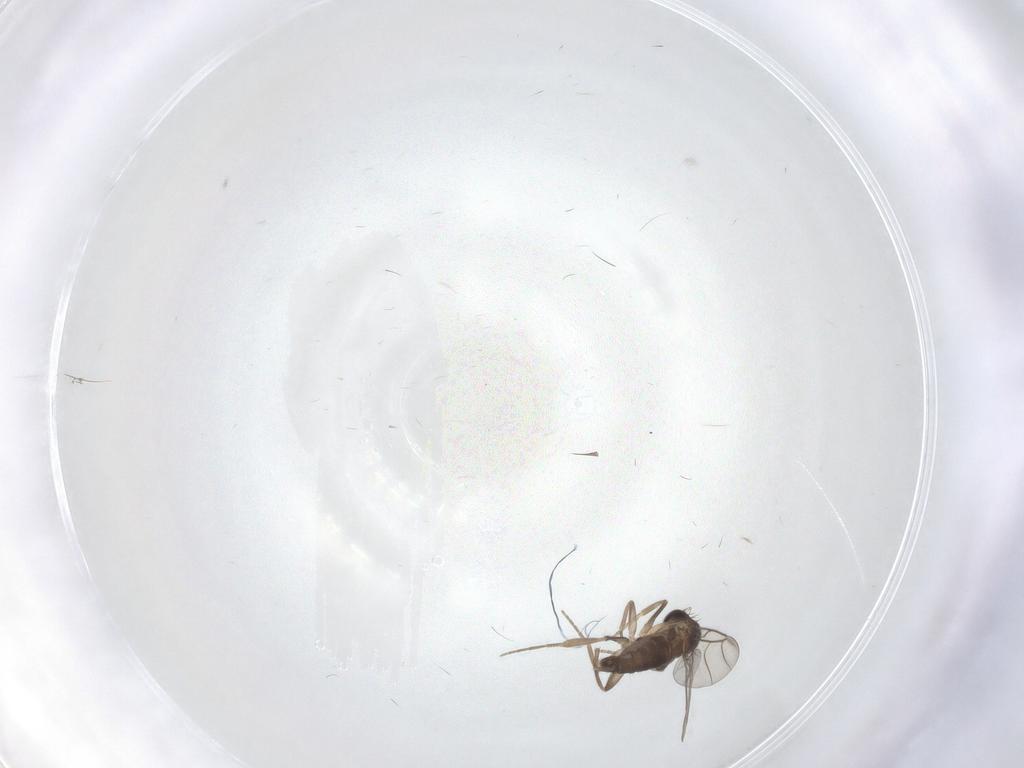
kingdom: Animalia
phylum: Arthropoda
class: Insecta
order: Diptera
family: Phoridae
